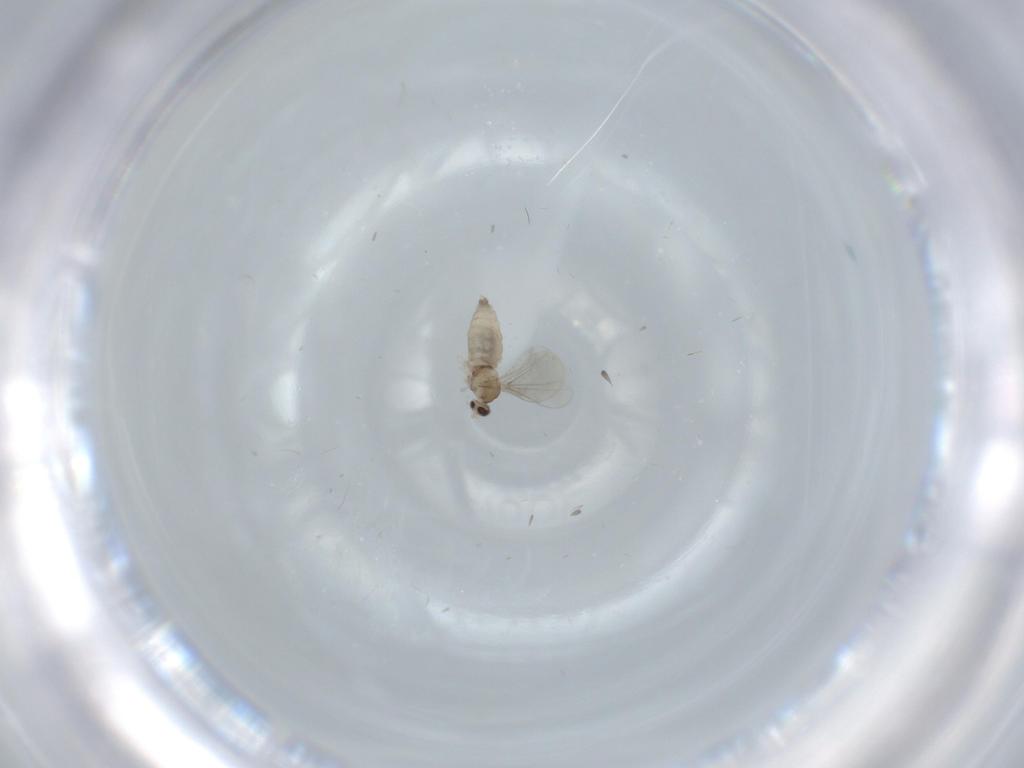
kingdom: Animalia
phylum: Arthropoda
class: Insecta
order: Diptera
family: Cecidomyiidae
